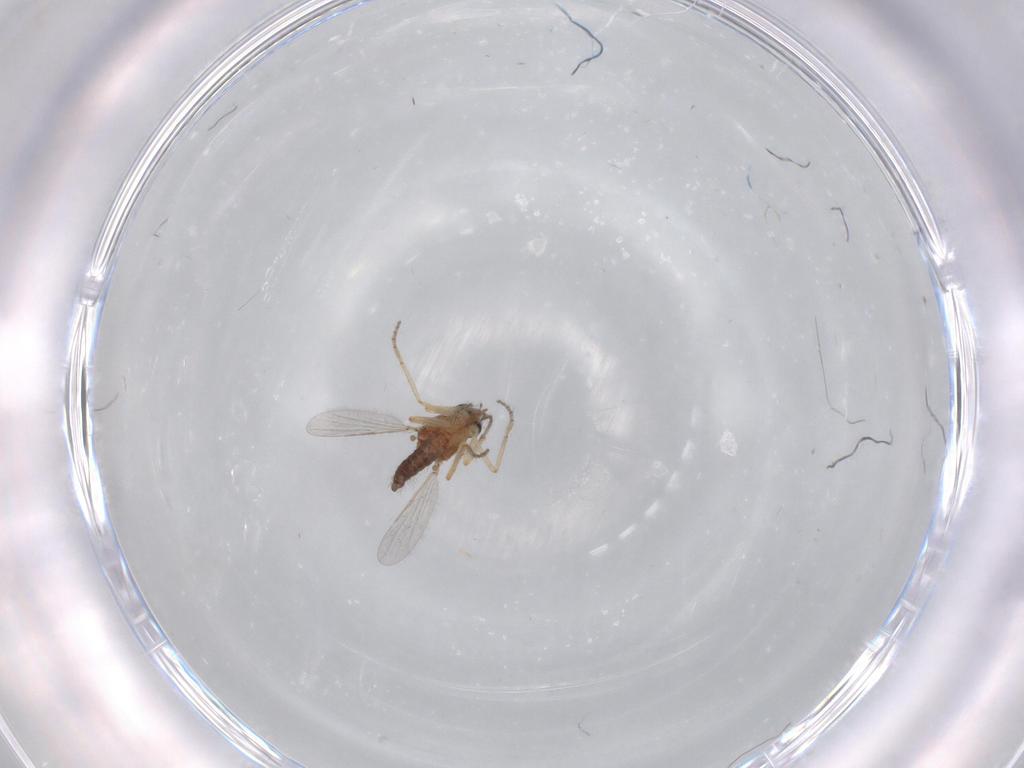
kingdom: Animalia
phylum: Arthropoda
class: Insecta
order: Diptera
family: Ceratopogonidae
